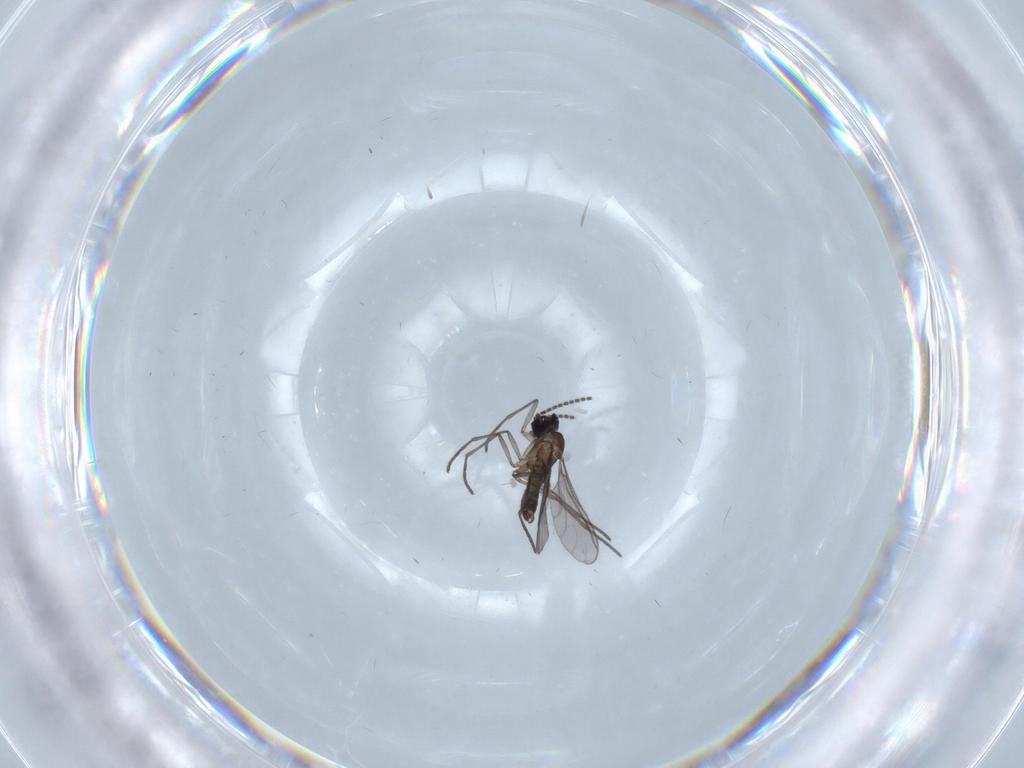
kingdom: Animalia
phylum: Arthropoda
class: Insecta
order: Diptera
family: Sciaridae
